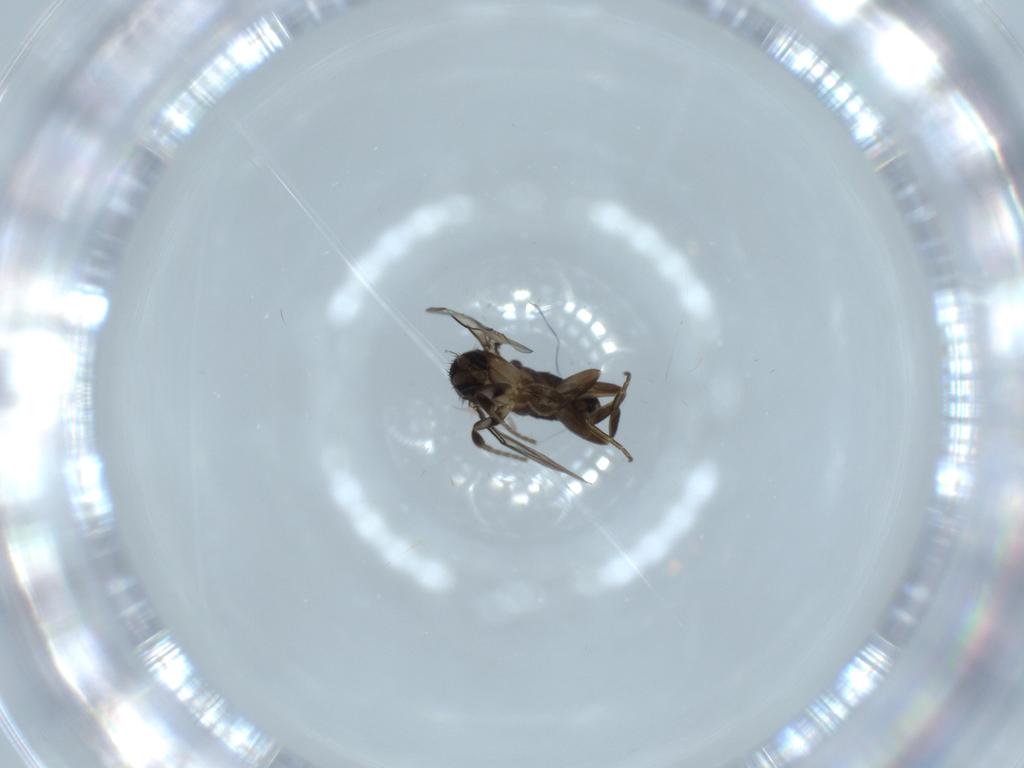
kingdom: Animalia
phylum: Arthropoda
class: Insecta
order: Diptera
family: Phoridae
